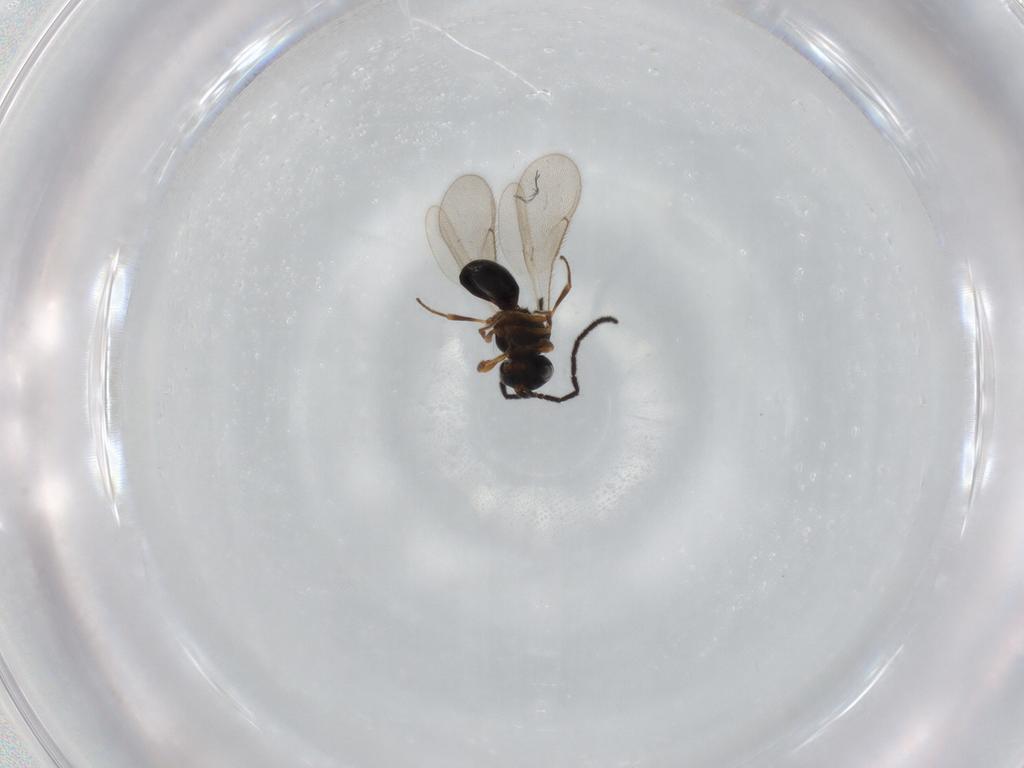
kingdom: Animalia
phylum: Arthropoda
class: Insecta
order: Hymenoptera
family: Scelionidae
